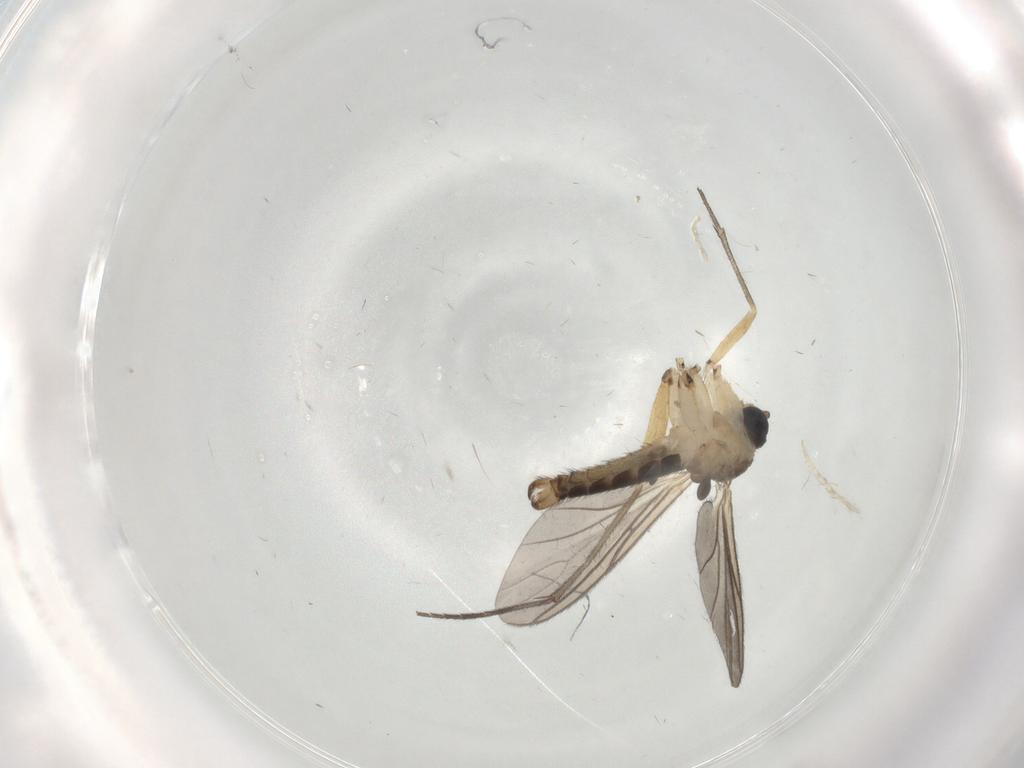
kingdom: Animalia
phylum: Arthropoda
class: Insecta
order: Diptera
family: Sciaridae
